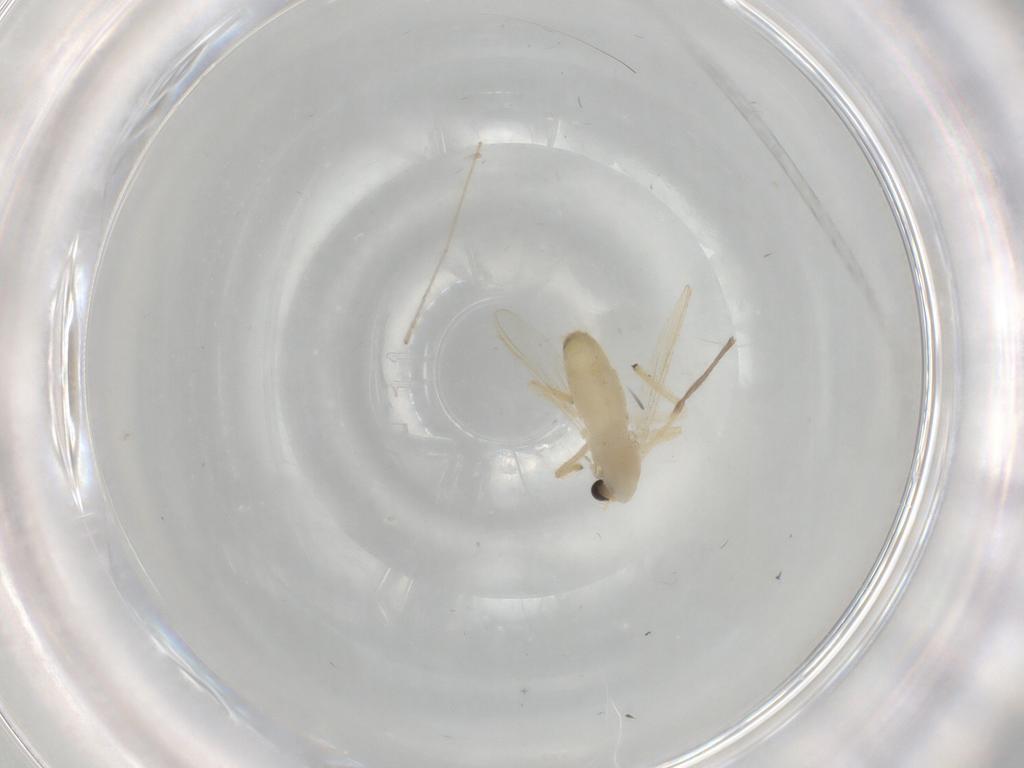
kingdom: Animalia
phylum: Arthropoda
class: Insecta
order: Diptera
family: Chironomidae
